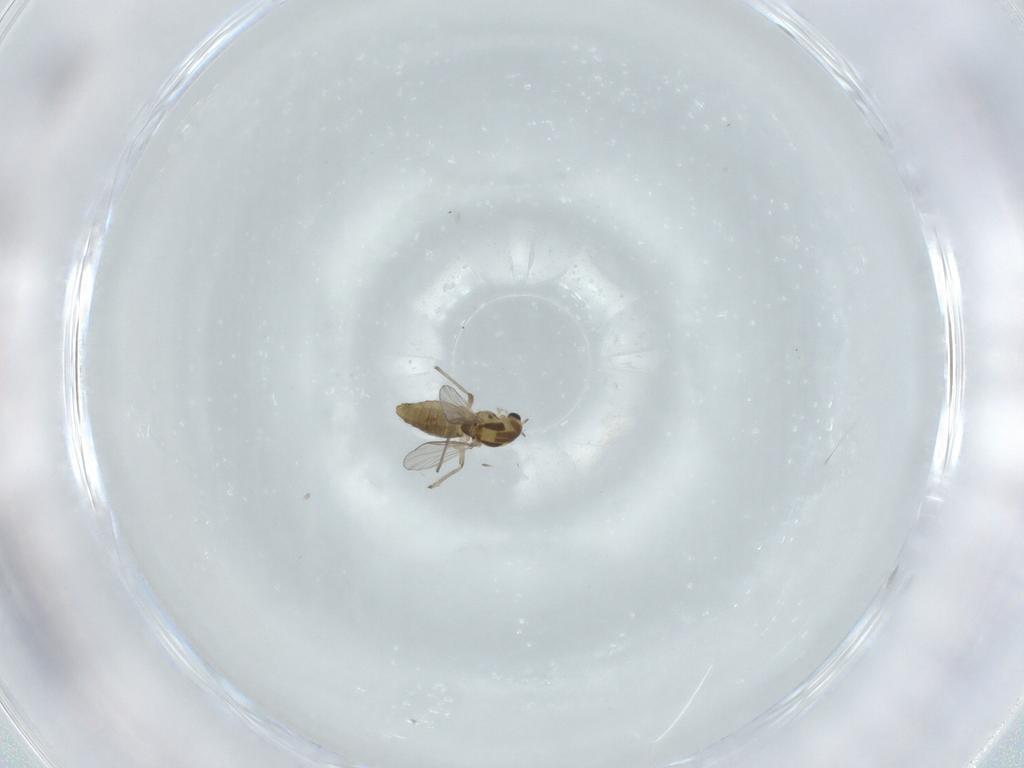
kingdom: Animalia
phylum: Arthropoda
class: Insecta
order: Diptera
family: Chironomidae
